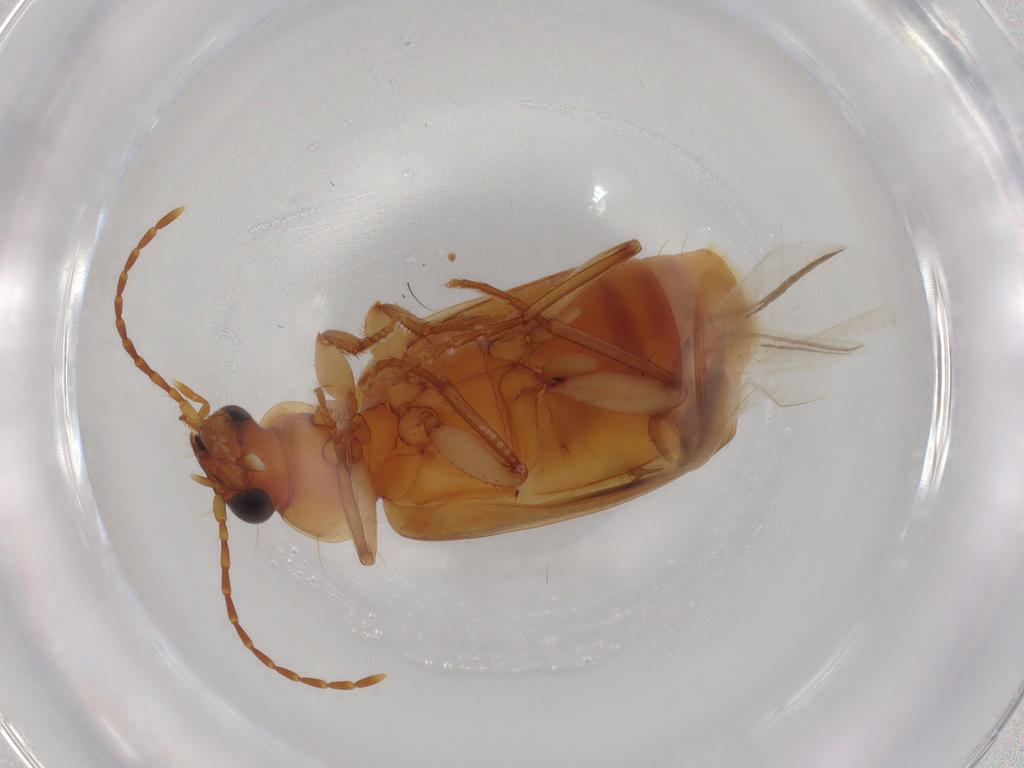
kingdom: Animalia
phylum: Arthropoda
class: Insecta
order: Coleoptera
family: Carabidae
